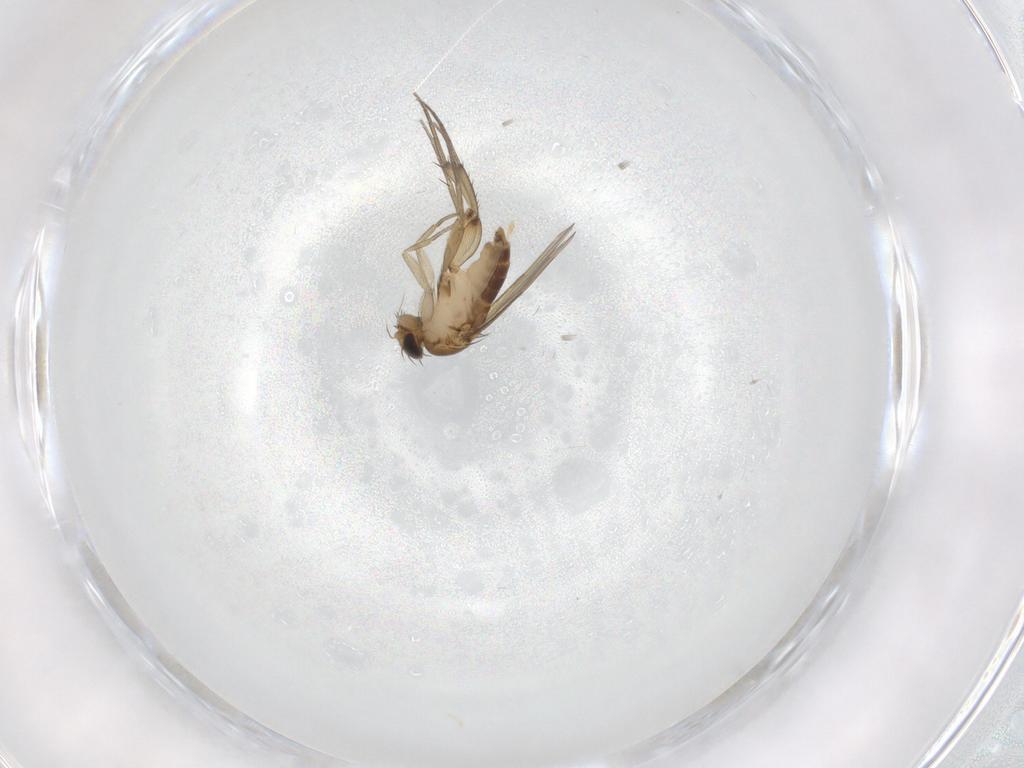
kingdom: Animalia
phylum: Arthropoda
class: Insecta
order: Diptera
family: Phoridae
